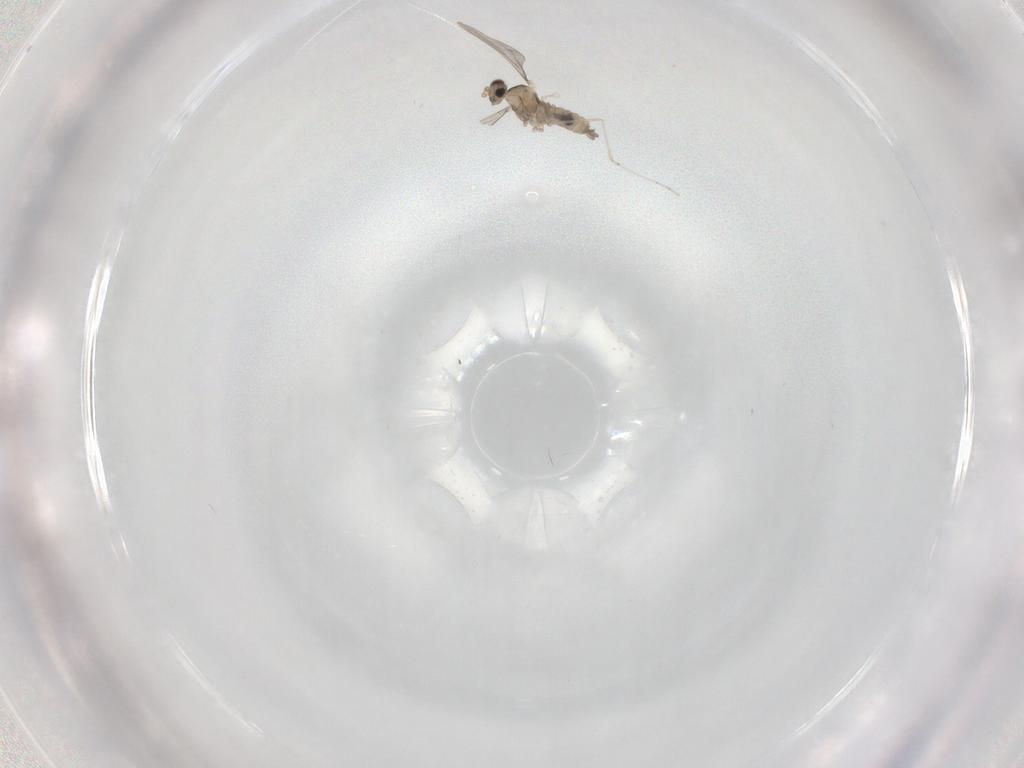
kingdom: Animalia
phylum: Arthropoda
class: Insecta
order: Diptera
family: Cecidomyiidae
